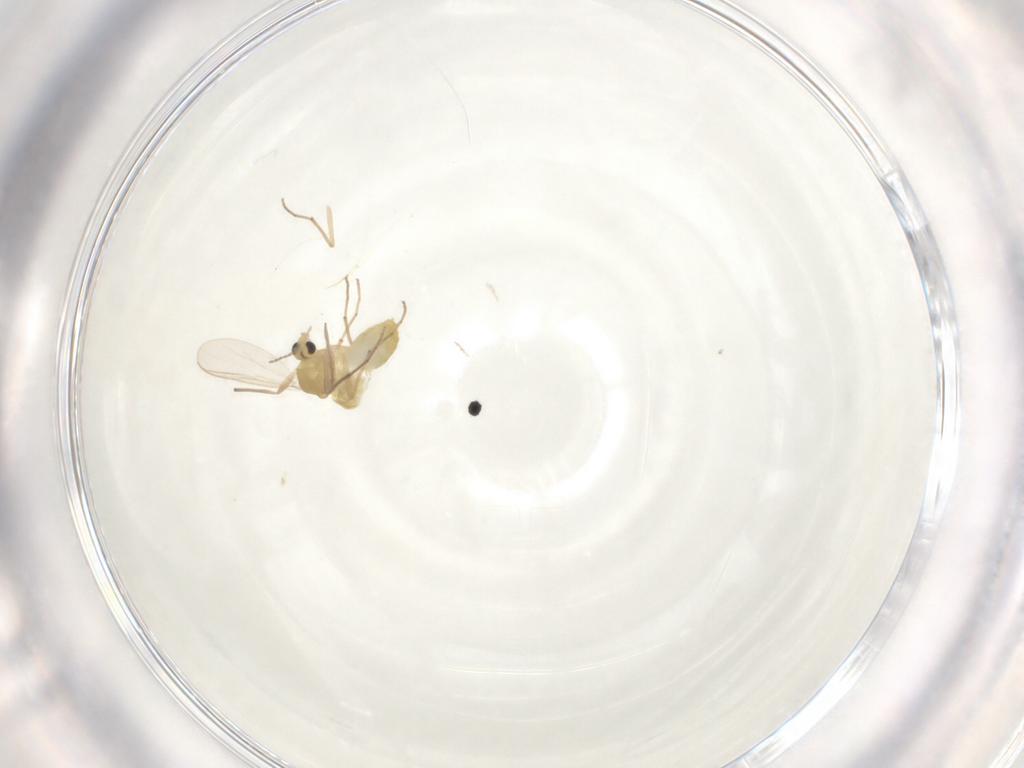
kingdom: Animalia
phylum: Arthropoda
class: Insecta
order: Diptera
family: Chironomidae
